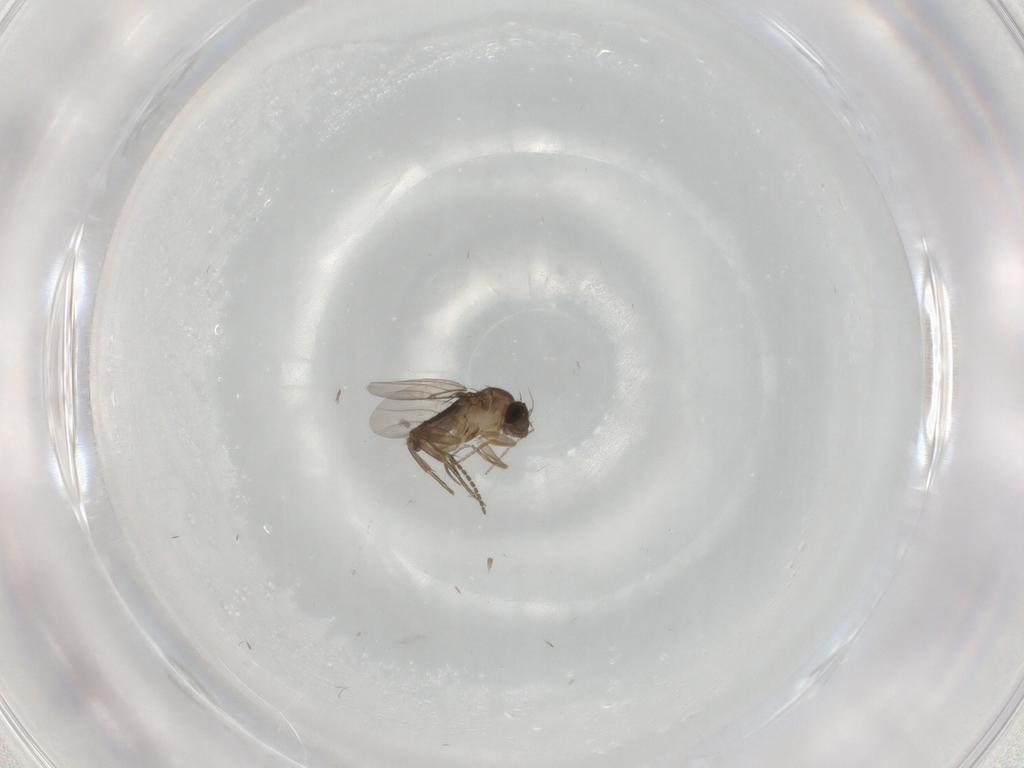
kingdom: Animalia
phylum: Arthropoda
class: Insecta
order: Diptera
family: Phoridae
